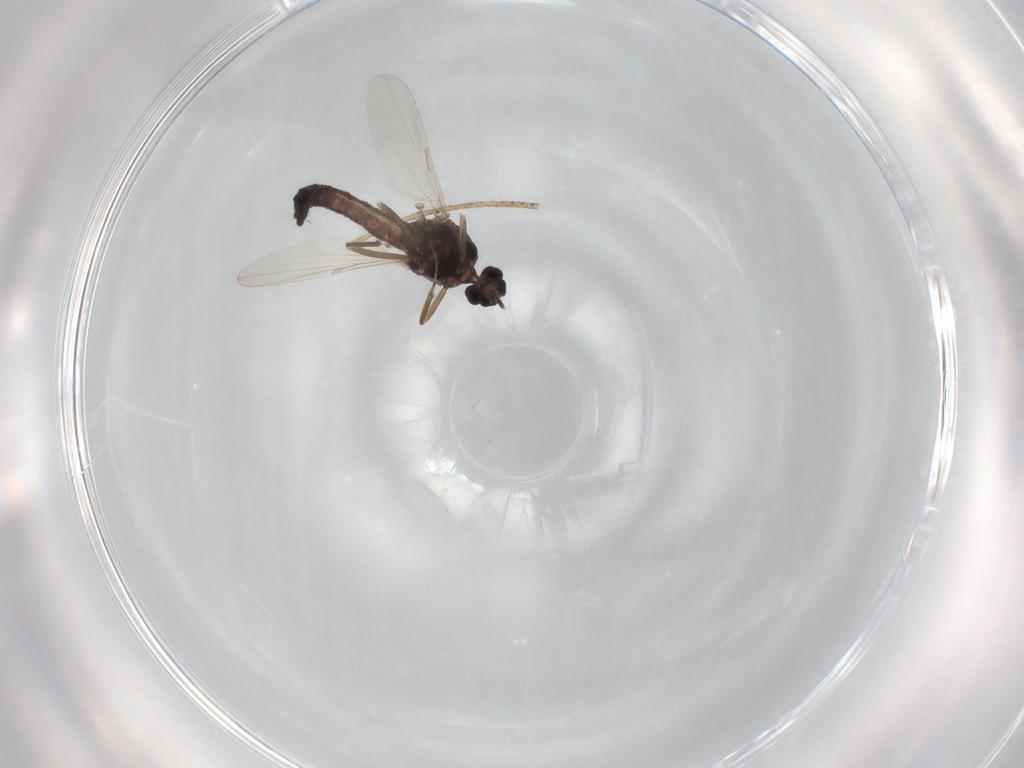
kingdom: Animalia
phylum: Arthropoda
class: Insecta
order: Diptera
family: Ceratopogonidae
